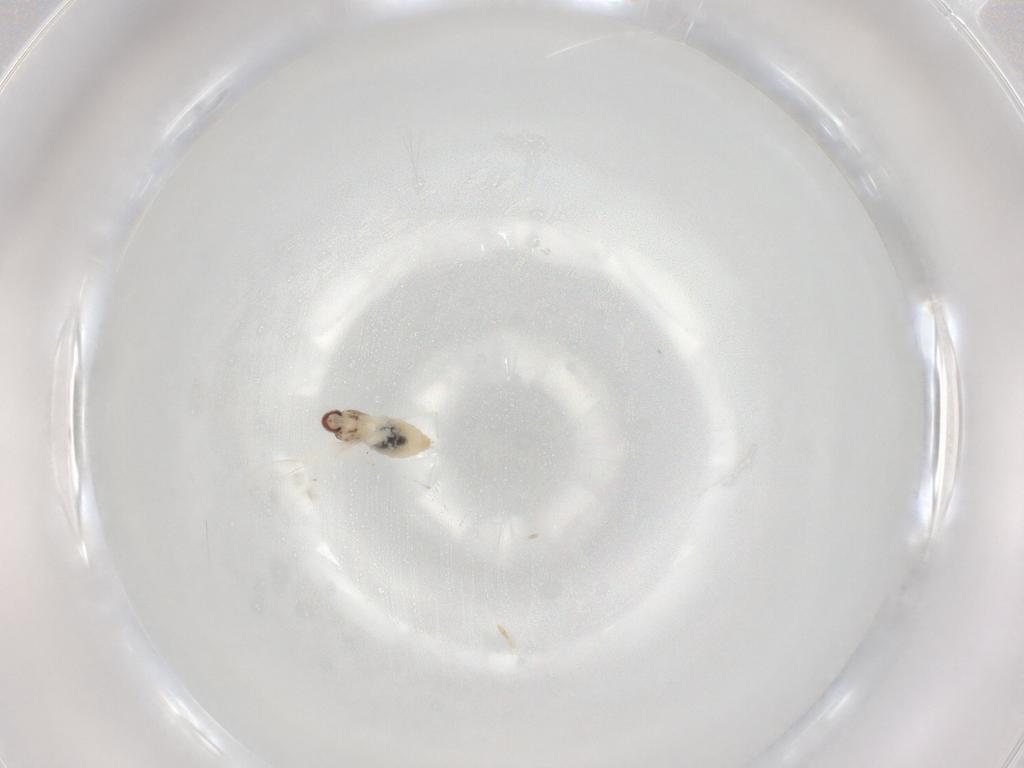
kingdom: Animalia
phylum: Arthropoda
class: Insecta
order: Diptera
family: Cecidomyiidae
